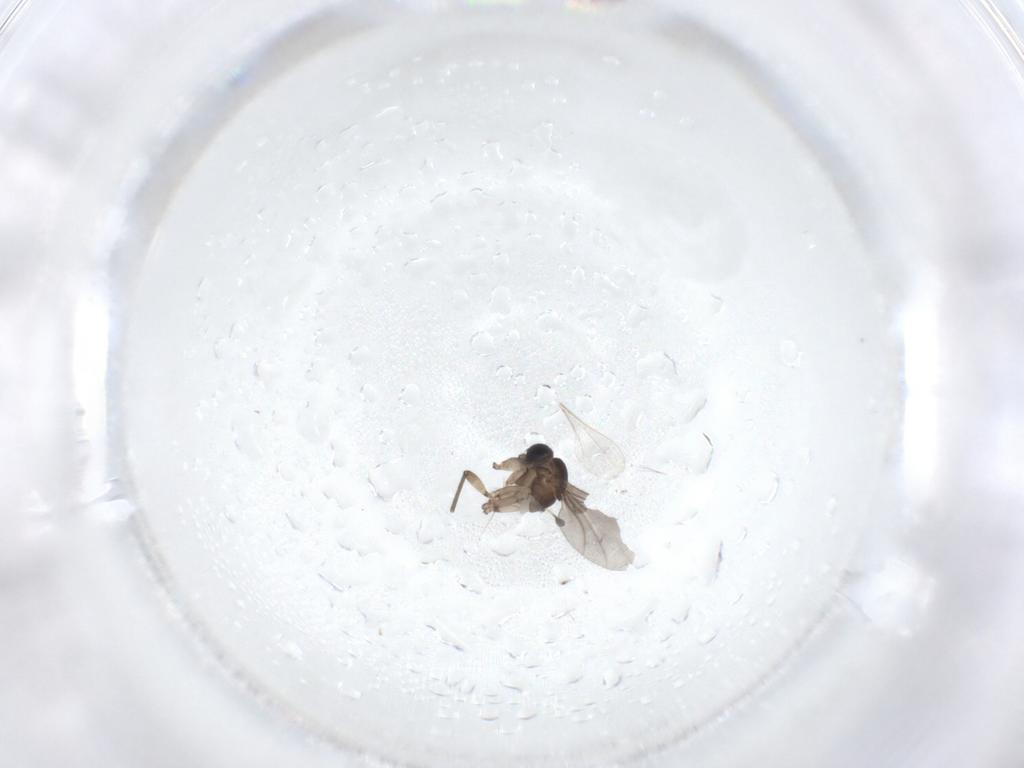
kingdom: Animalia
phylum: Arthropoda
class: Insecta
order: Diptera
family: Sciaridae
